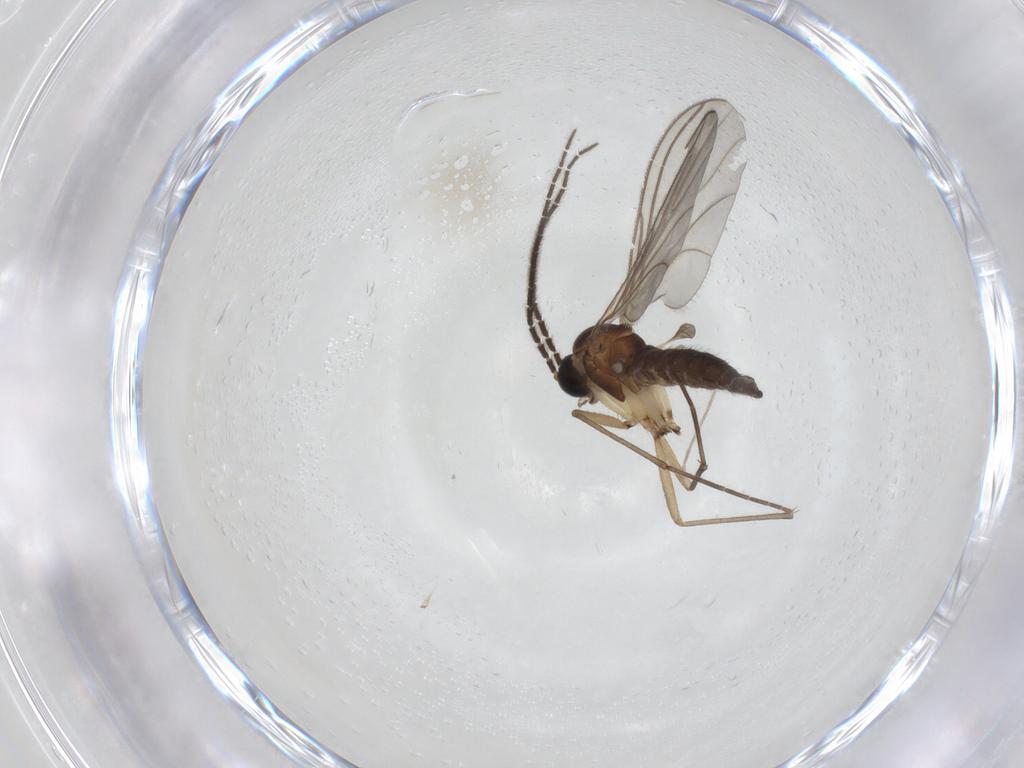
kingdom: Animalia
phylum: Arthropoda
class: Insecta
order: Diptera
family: Sciaridae
